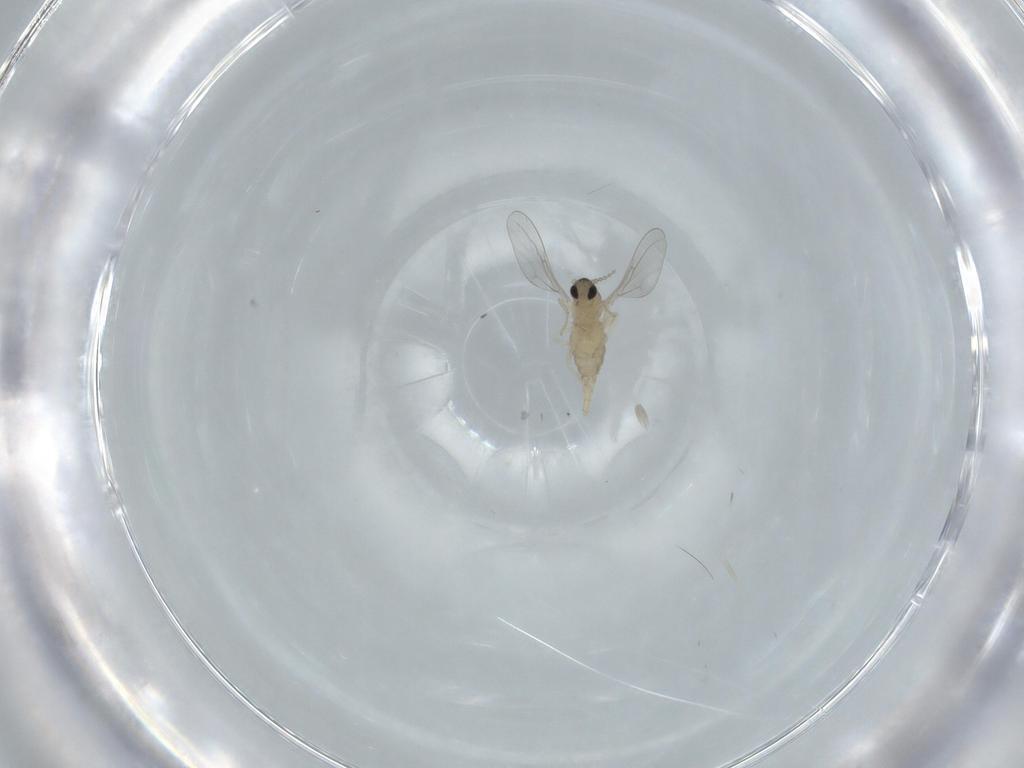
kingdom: Animalia
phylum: Arthropoda
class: Insecta
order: Diptera
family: Cecidomyiidae
